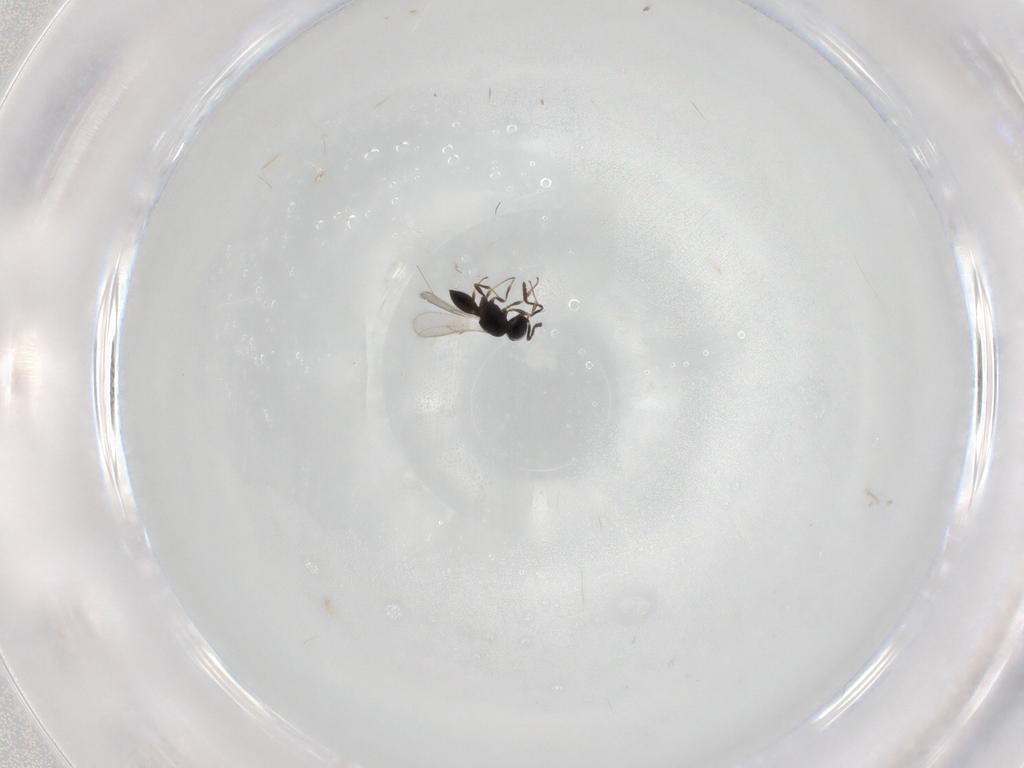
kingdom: Animalia
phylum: Arthropoda
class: Insecta
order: Hymenoptera
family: Scelionidae
